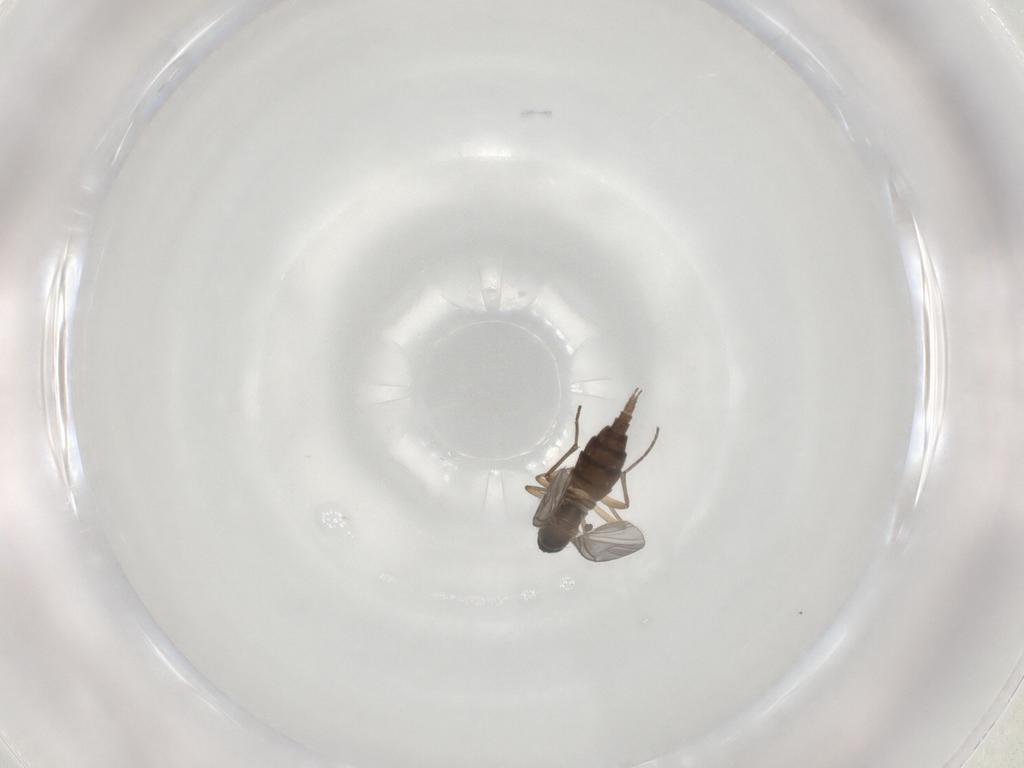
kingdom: Animalia
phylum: Arthropoda
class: Insecta
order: Diptera
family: Sciaridae
